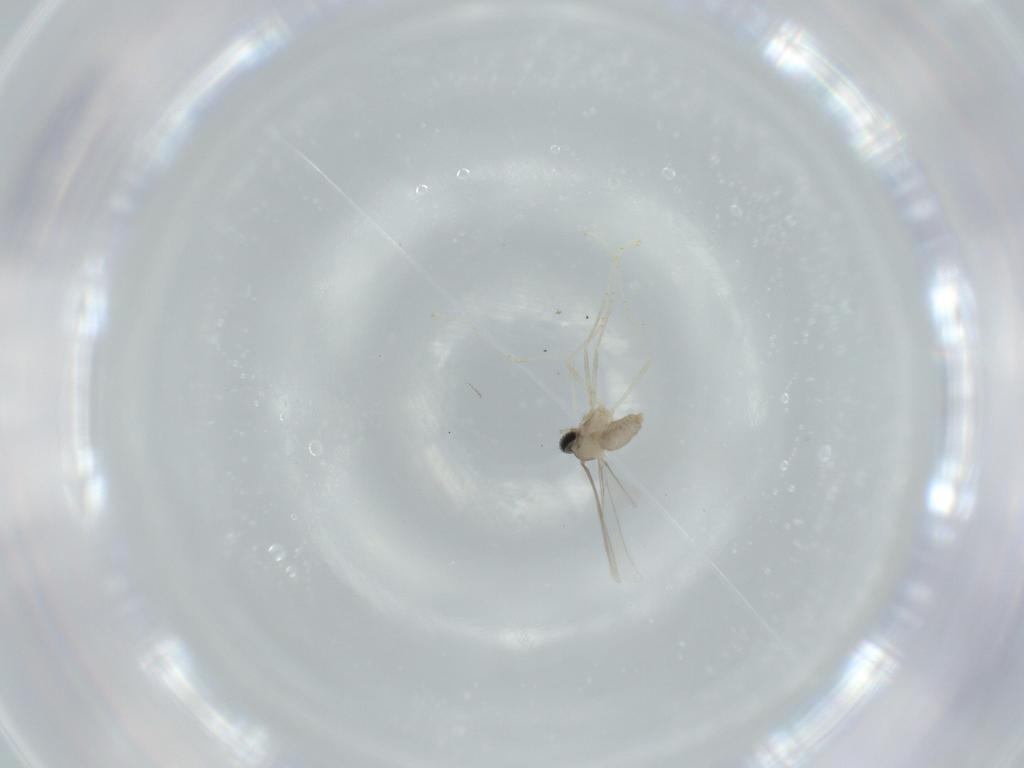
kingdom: Animalia
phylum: Arthropoda
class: Insecta
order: Diptera
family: Cecidomyiidae
